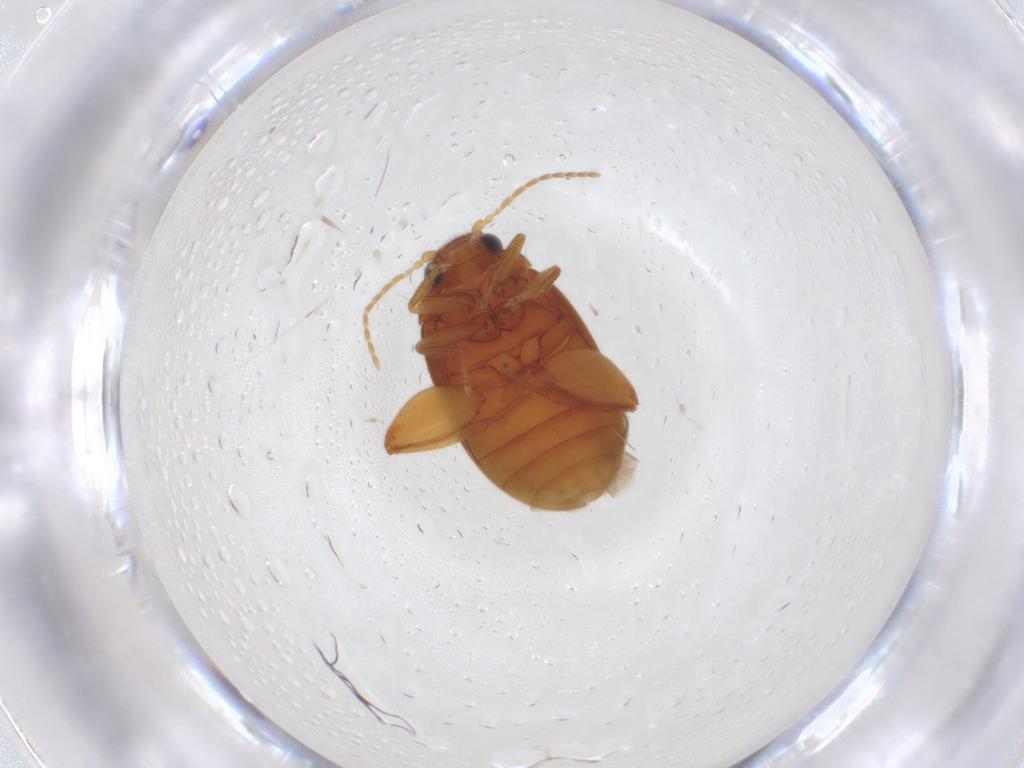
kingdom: Animalia
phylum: Arthropoda
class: Insecta
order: Coleoptera
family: Scirtidae
